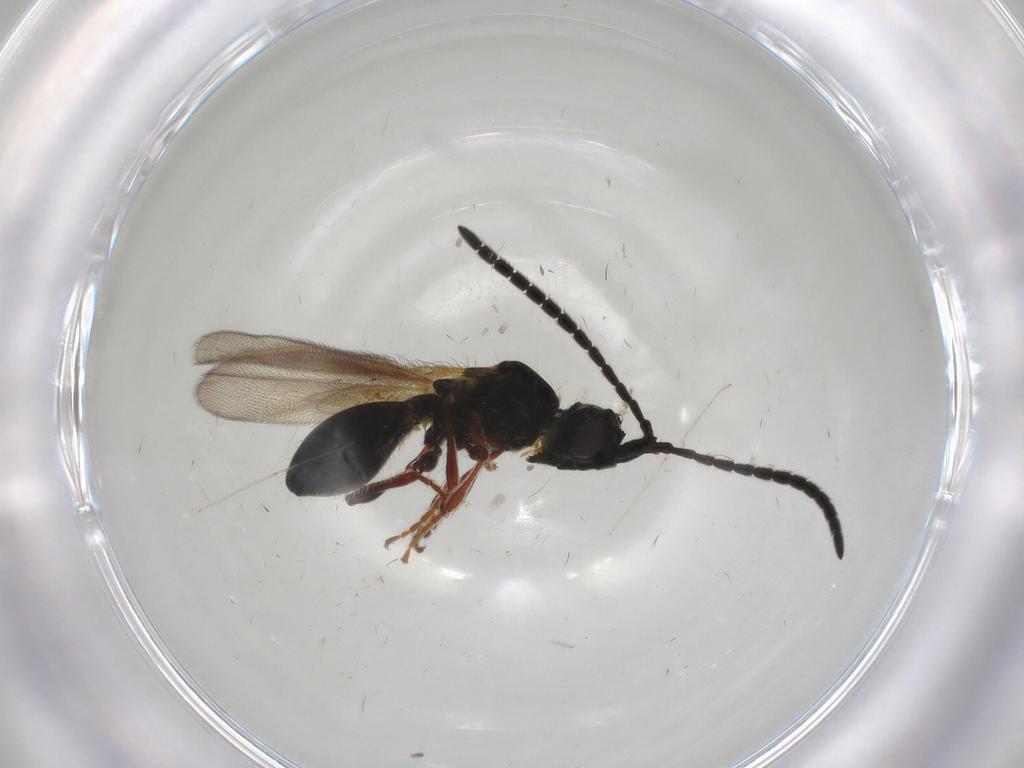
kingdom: Animalia
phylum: Arthropoda
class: Insecta
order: Hymenoptera
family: Diapriidae
